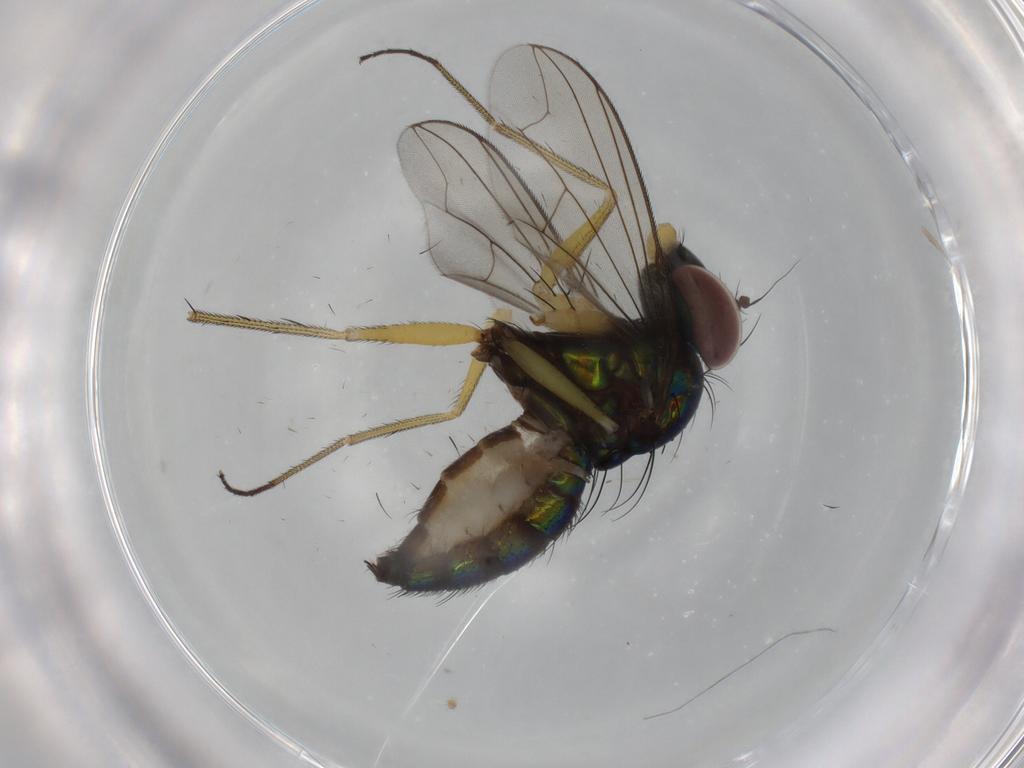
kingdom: Animalia
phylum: Arthropoda
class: Insecta
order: Diptera
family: Dolichopodidae
